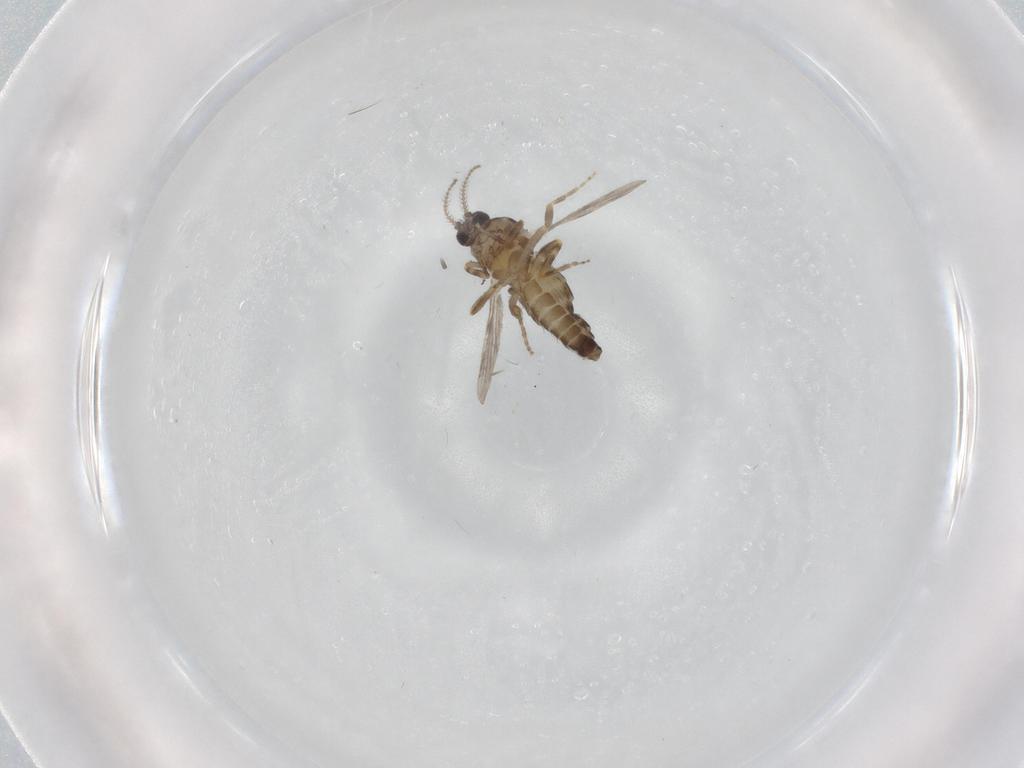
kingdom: Animalia
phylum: Arthropoda
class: Insecta
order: Diptera
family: Ceratopogonidae
